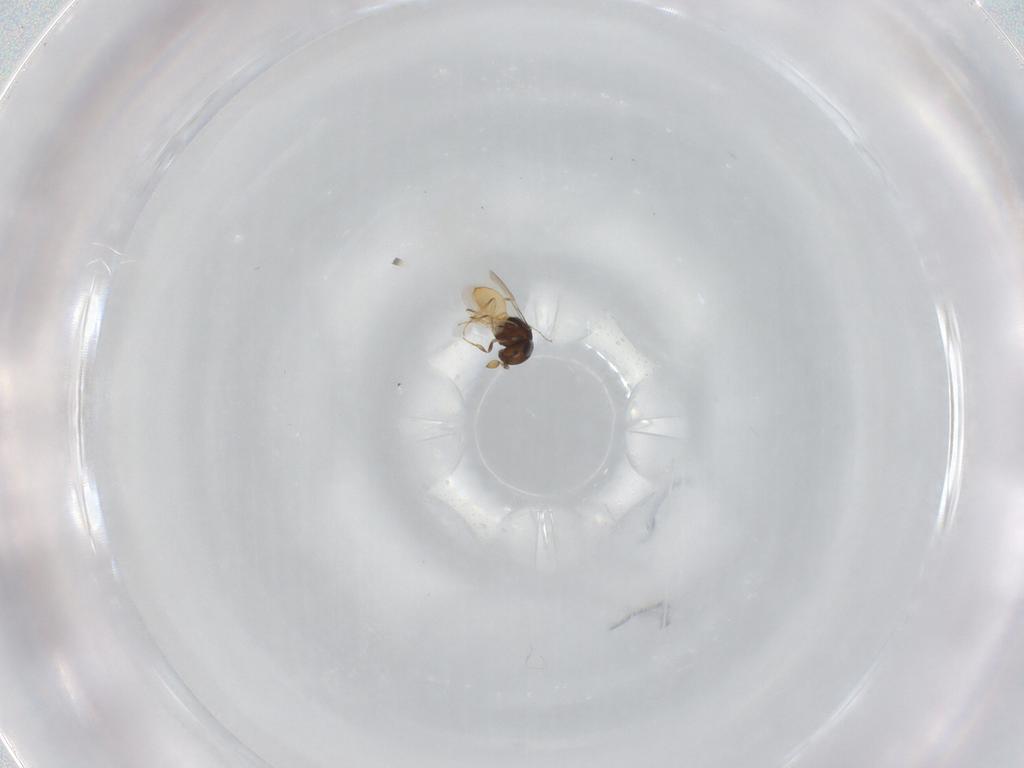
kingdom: Animalia
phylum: Arthropoda
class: Insecta
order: Hymenoptera
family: Scelionidae
